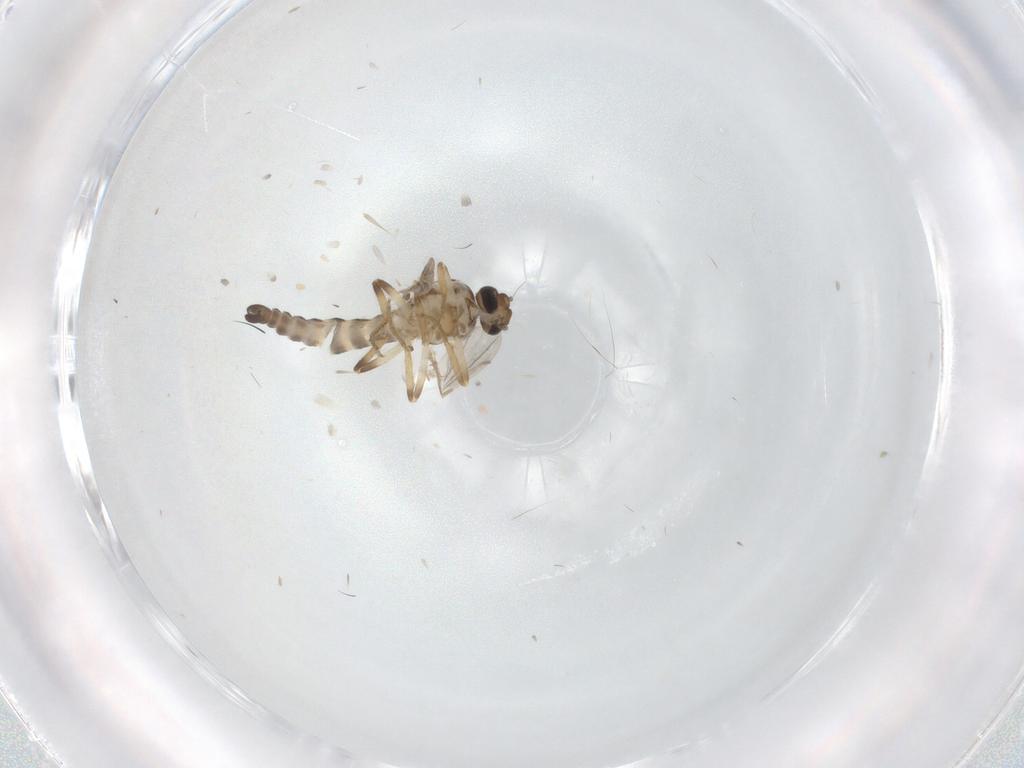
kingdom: Animalia
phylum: Arthropoda
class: Insecta
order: Diptera
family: Ceratopogonidae
